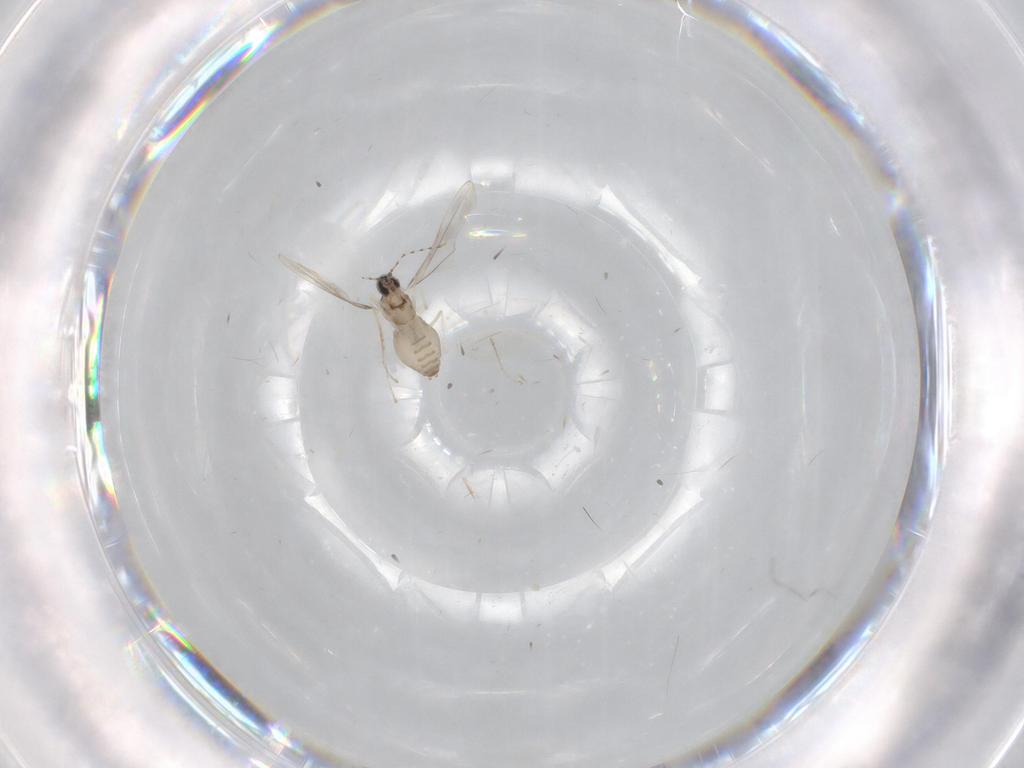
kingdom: Animalia
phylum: Arthropoda
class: Insecta
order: Diptera
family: Cecidomyiidae
